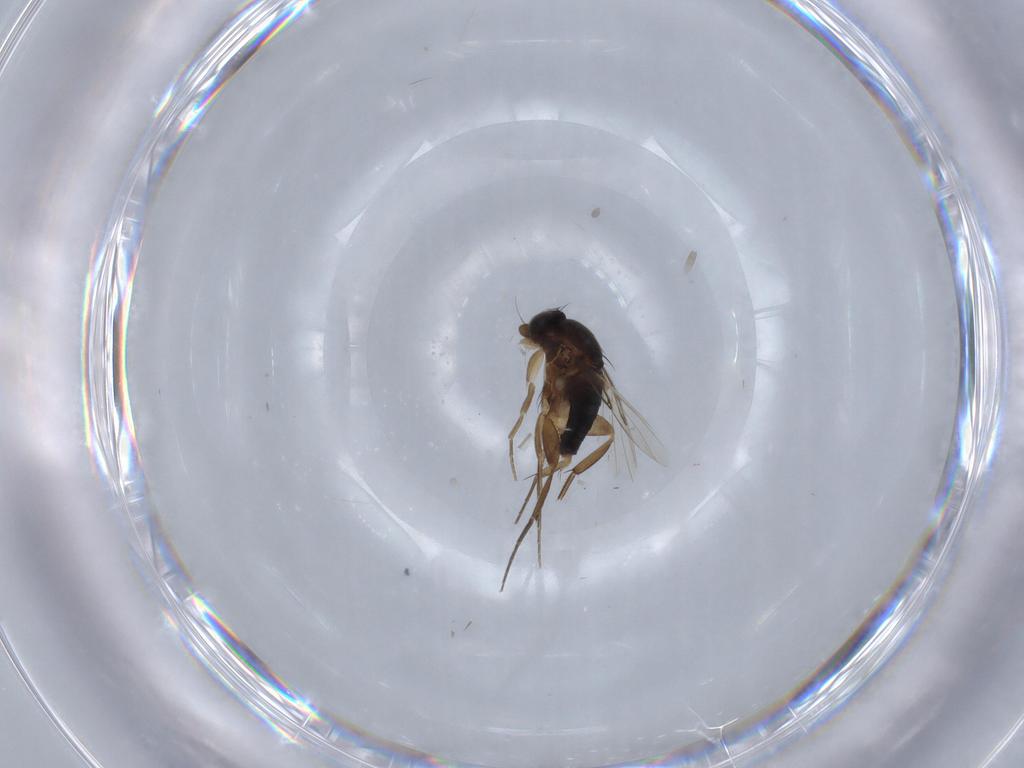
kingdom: Animalia
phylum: Arthropoda
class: Insecta
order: Diptera
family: Phoridae
